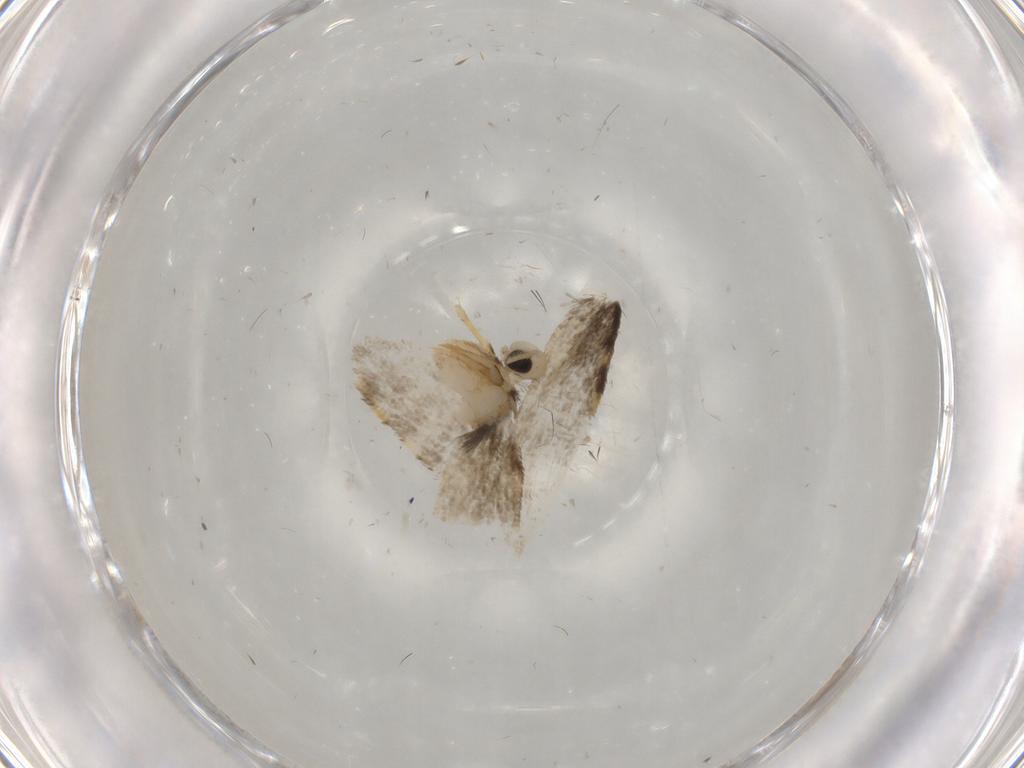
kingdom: Animalia
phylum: Arthropoda
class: Insecta
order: Lepidoptera
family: Psychidae
